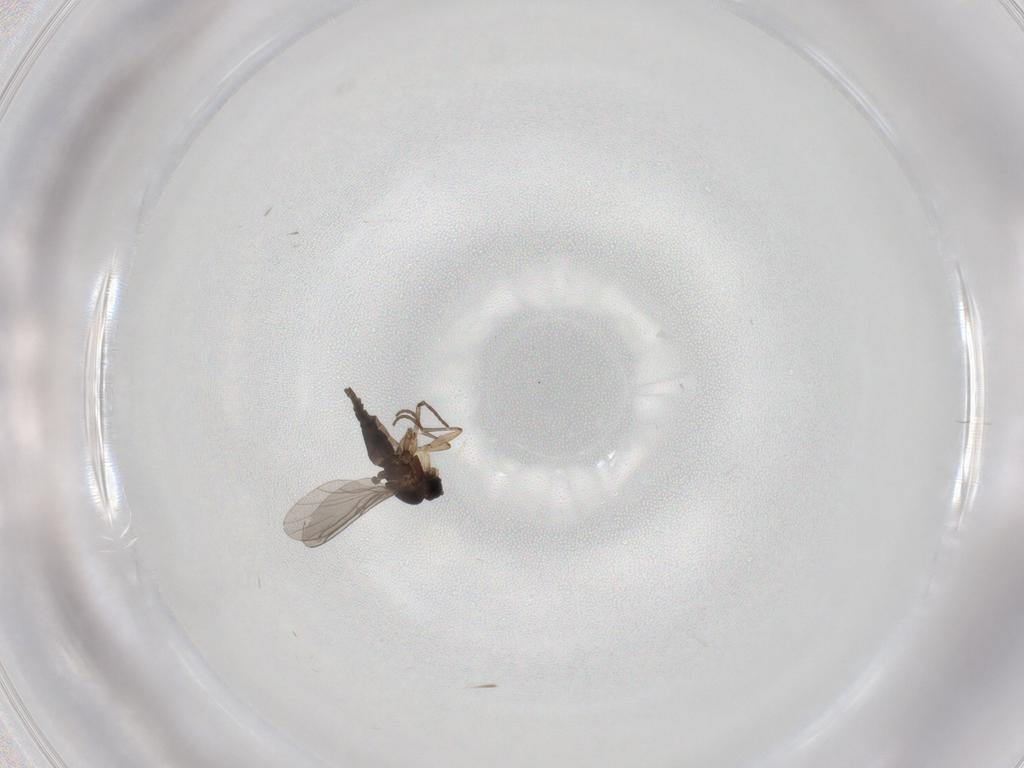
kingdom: Animalia
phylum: Arthropoda
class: Insecta
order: Diptera
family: Sciaridae
